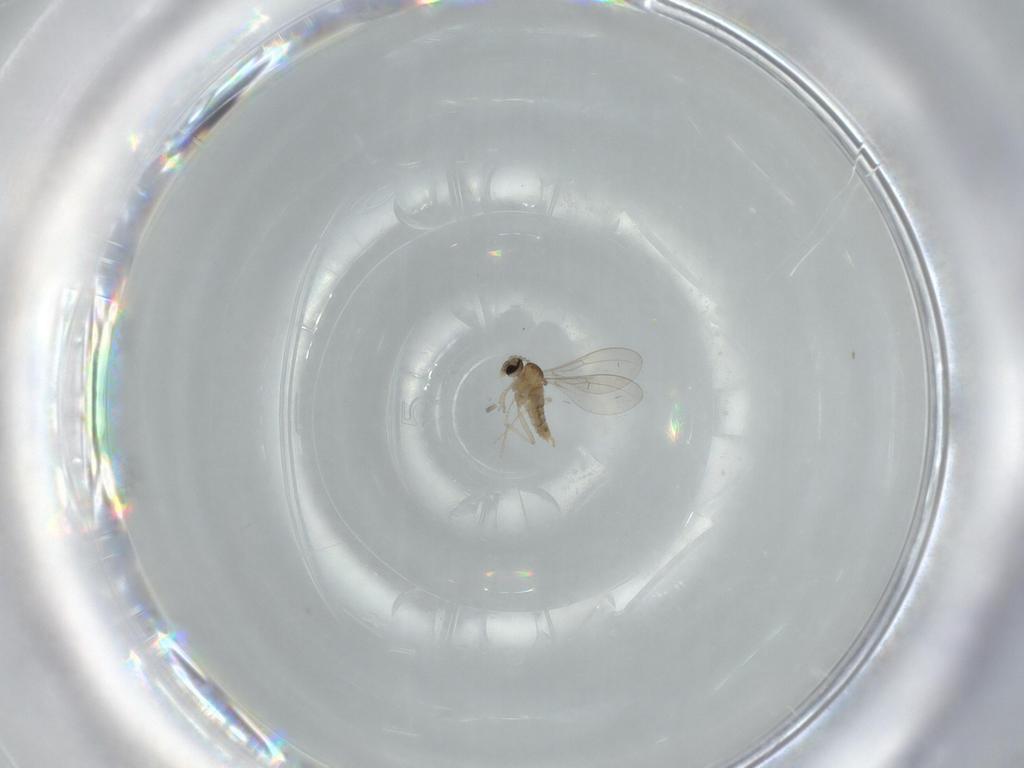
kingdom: Animalia
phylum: Arthropoda
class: Insecta
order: Diptera
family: Cecidomyiidae
